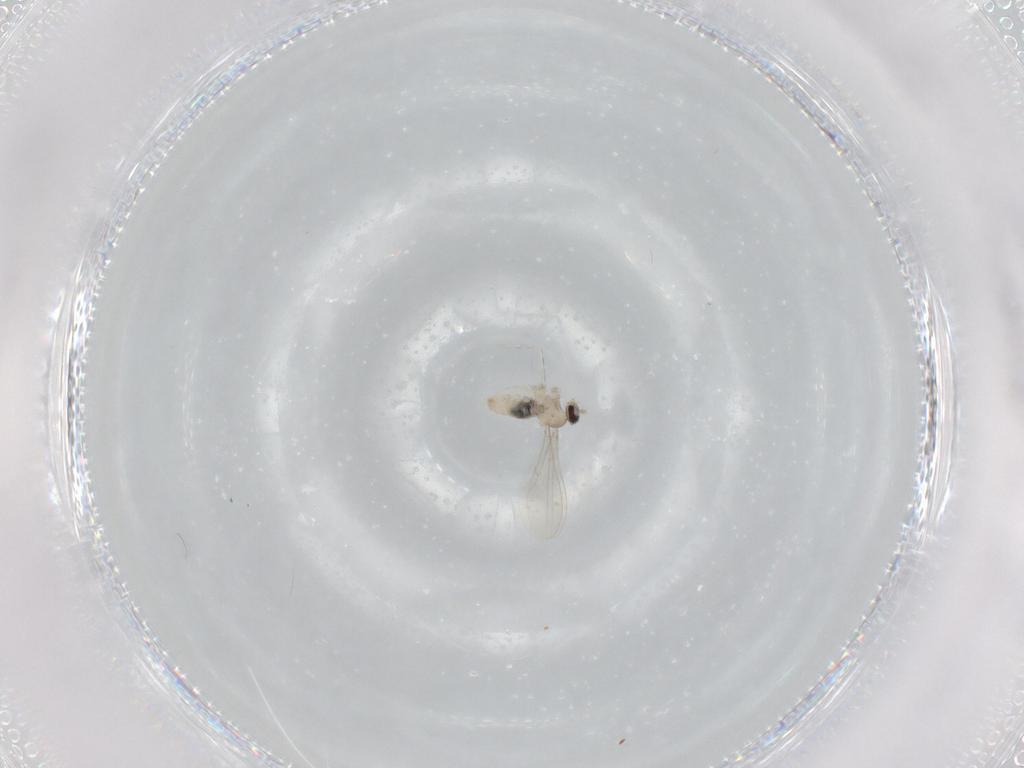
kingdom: Animalia
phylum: Arthropoda
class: Insecta
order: Diptera
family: Cecidomyiidae
